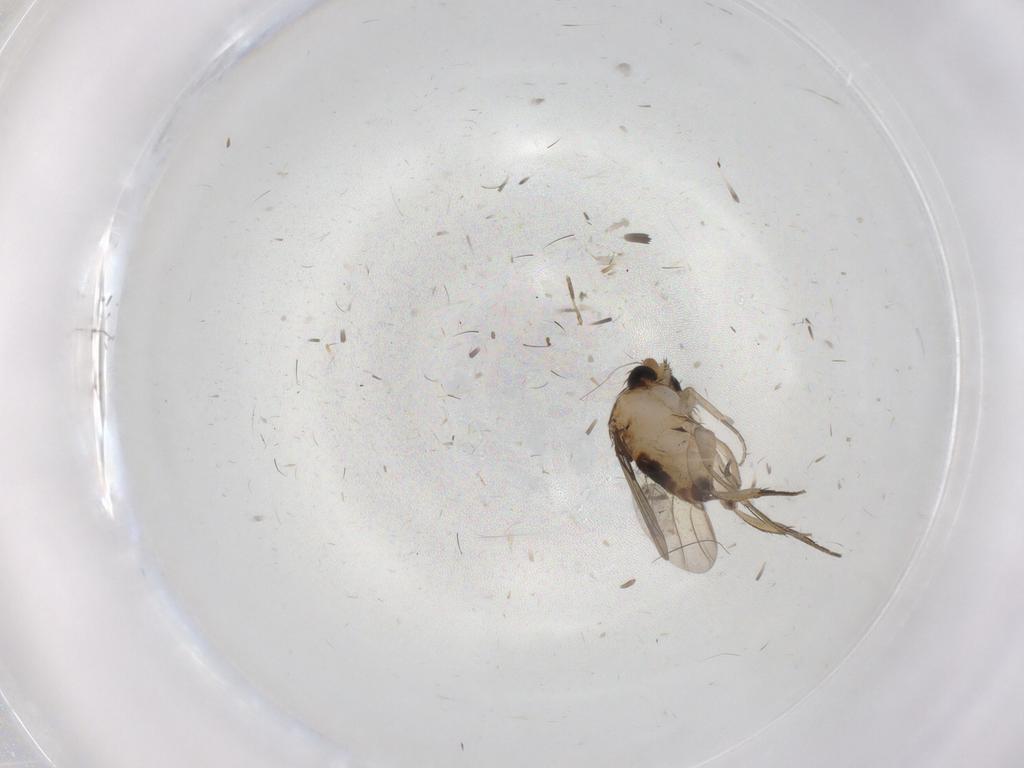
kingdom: Animalia
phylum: Arthropoda
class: Insecta
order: Diptera
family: Phoridae
